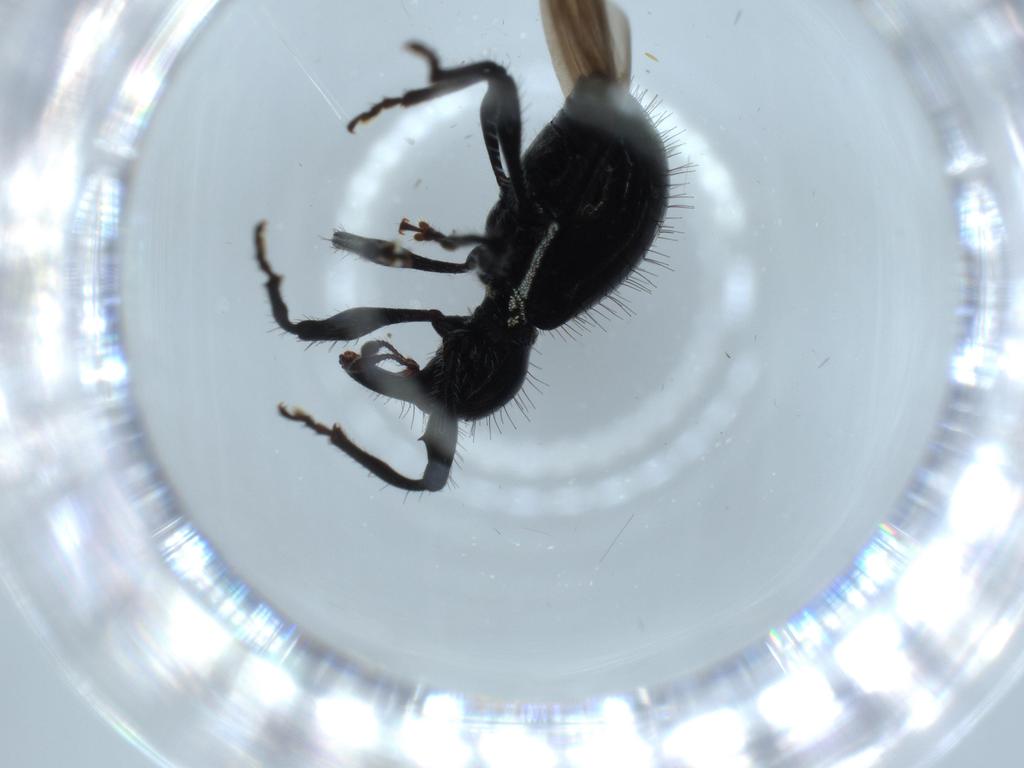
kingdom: Animalia
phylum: Arthropoda
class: Insecta
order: Coleoptera
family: Curculionidae
